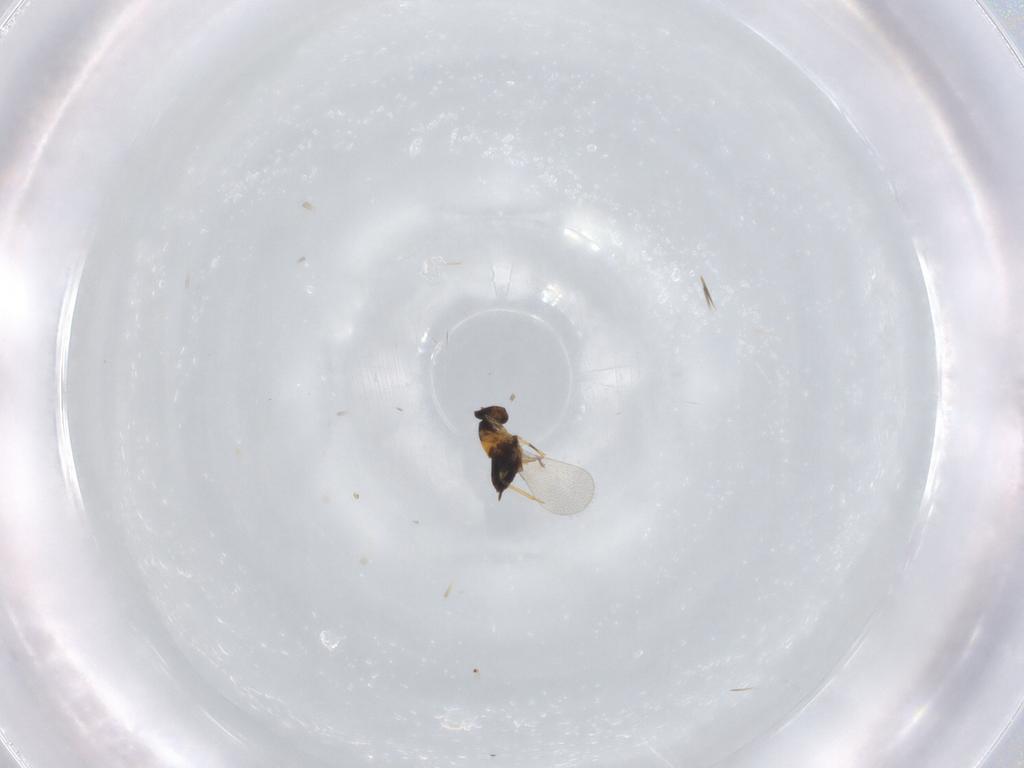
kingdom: Animalia
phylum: Arthropoda
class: Insecta
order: Hymenoptera
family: Trichogrammatidae
